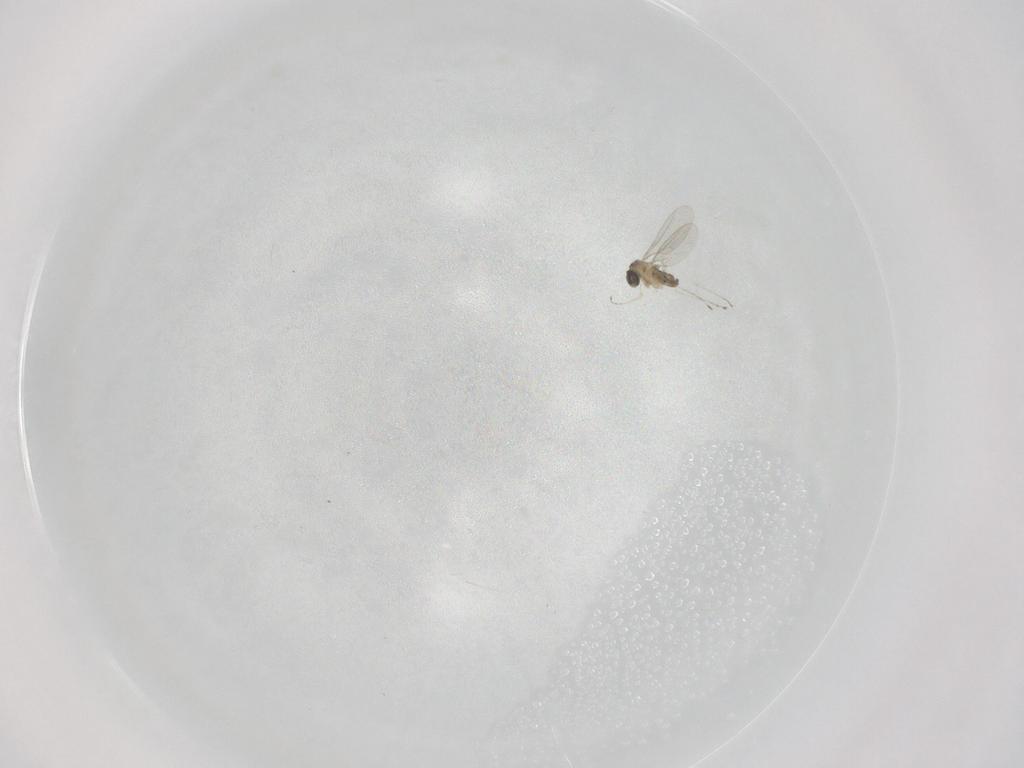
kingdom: Animalia
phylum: Arthropoda
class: Insecta
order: Diptera
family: Cecidomyiidae
